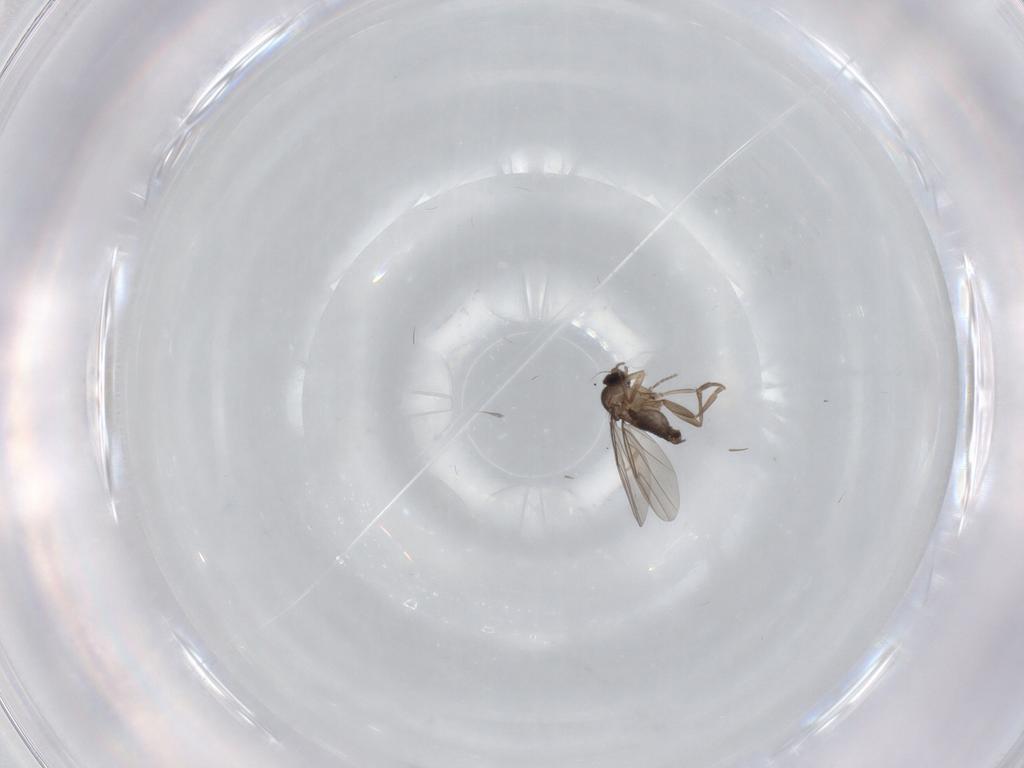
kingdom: Animalia
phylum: Arthropoda
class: Insecta
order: Diptera
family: Phoridae
